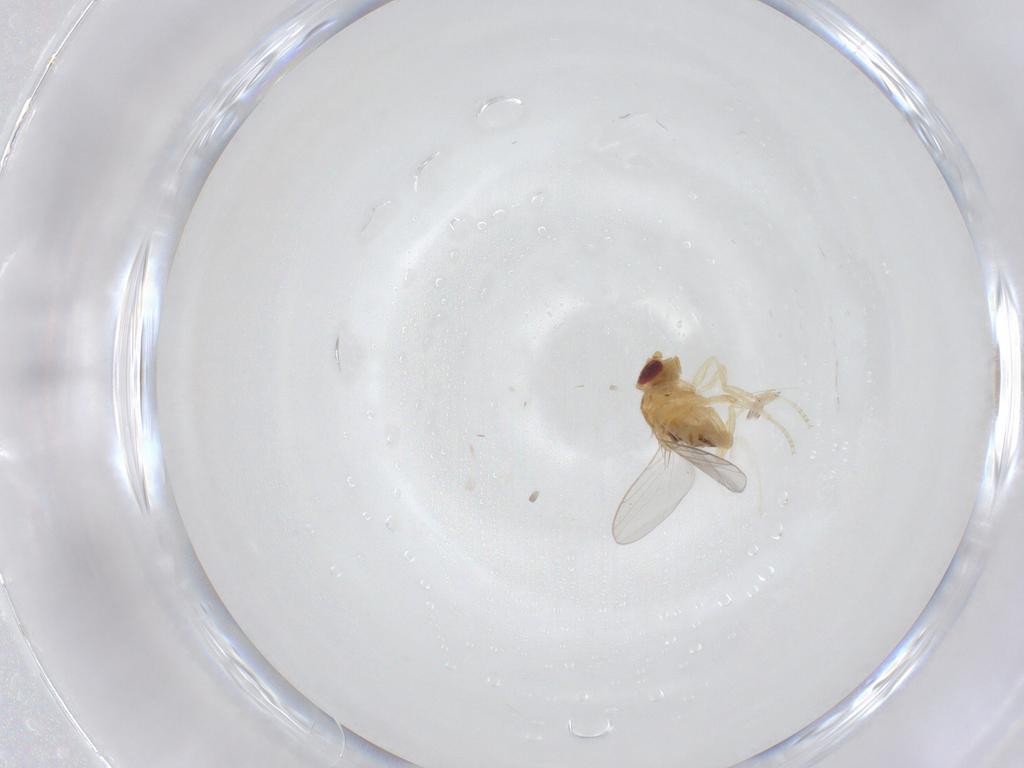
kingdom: Animalia
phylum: Arthropoda
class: Insecta
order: Diptera
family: Chloropidae
